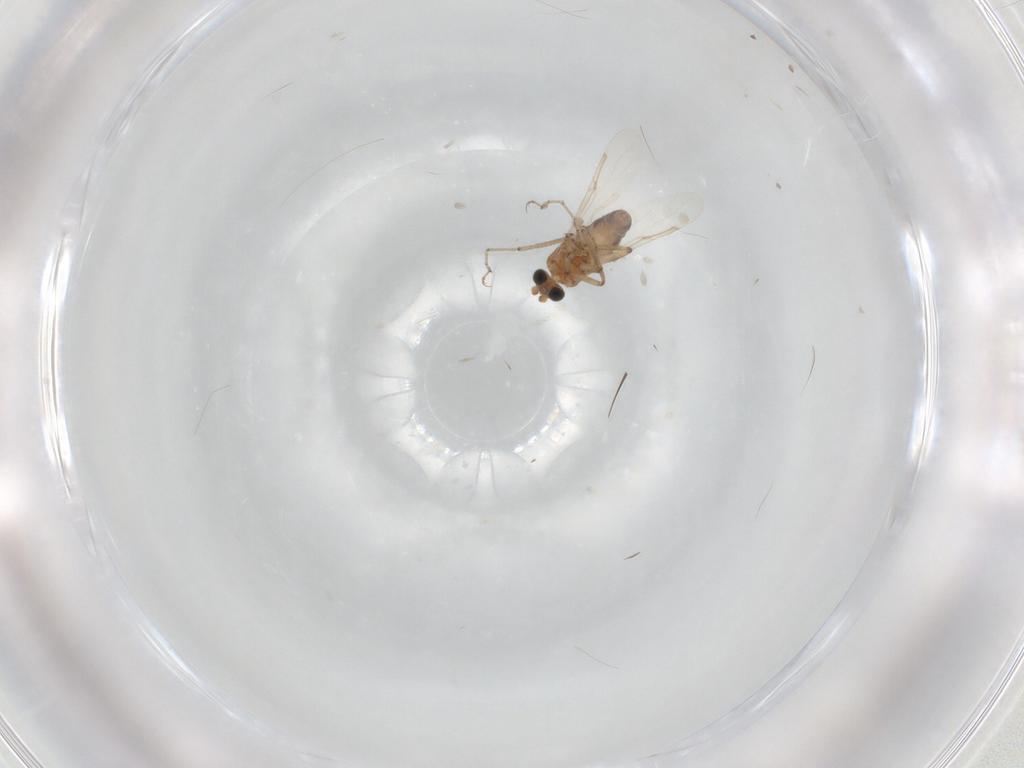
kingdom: Animalia
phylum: Arthropoda
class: Insecta
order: Diptera
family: Ceratopogonidae
